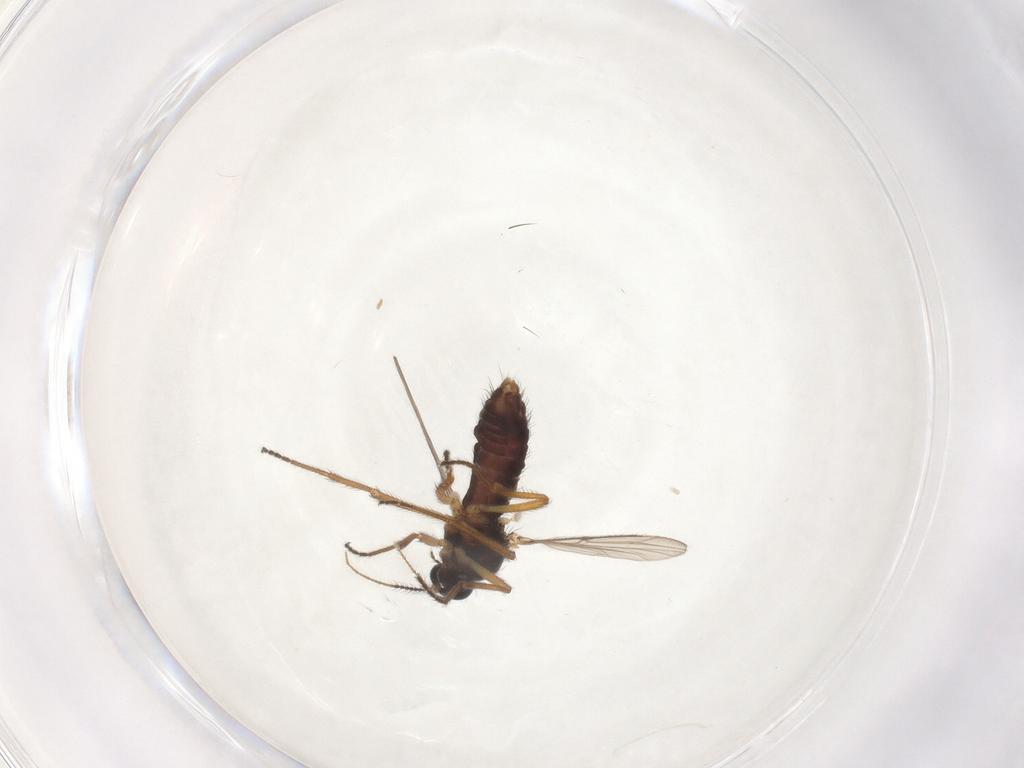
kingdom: Animalia
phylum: Arthropoda
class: Insecta
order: Diptera
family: Ceratopogonidae
